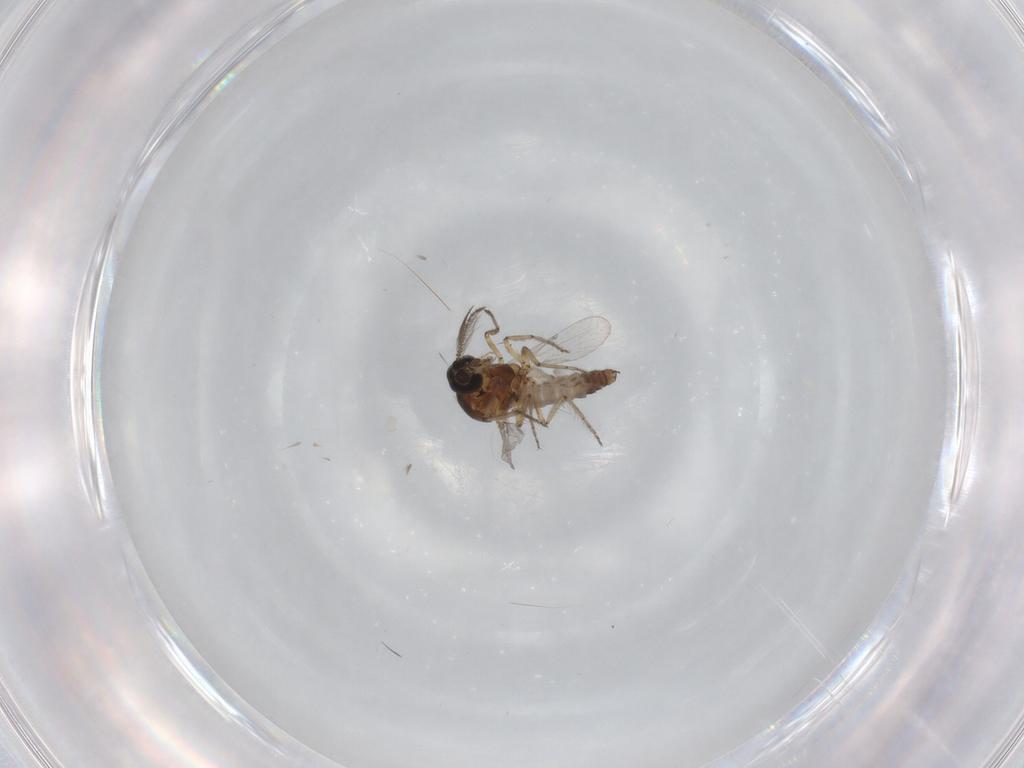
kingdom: Animalia
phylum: Arthropoda
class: Insecta
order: Diptera
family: Ceratopogonidae
